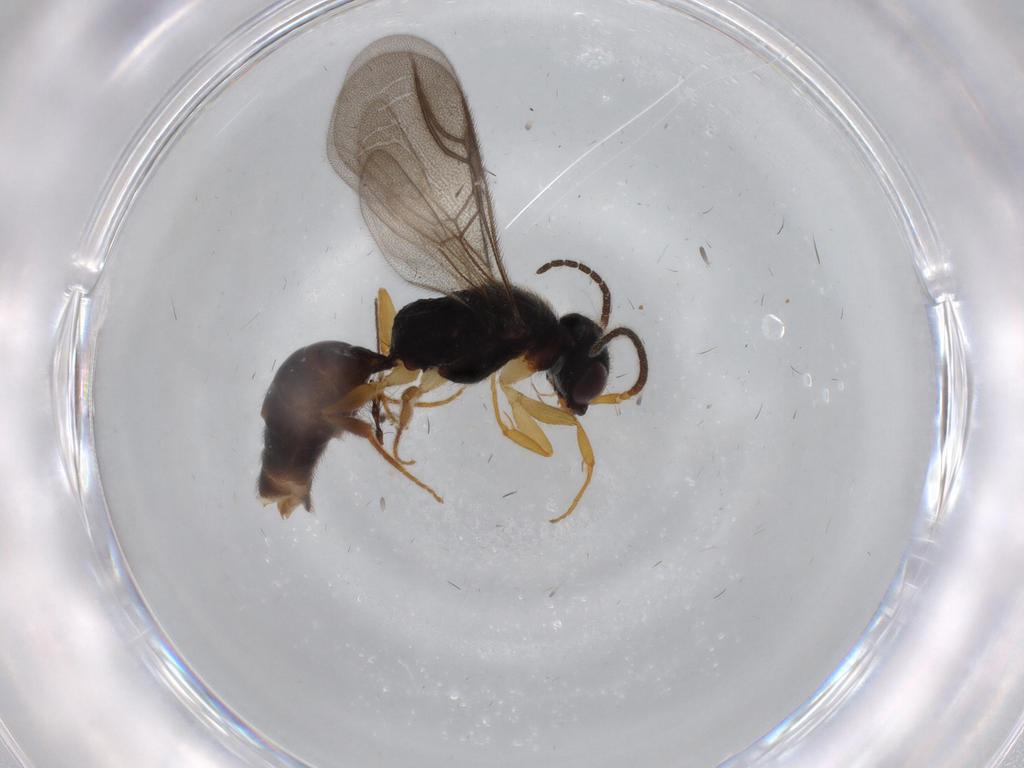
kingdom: Animalia
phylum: Arthropoda
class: Insecta
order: Hymenoptera
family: Bethylidae
